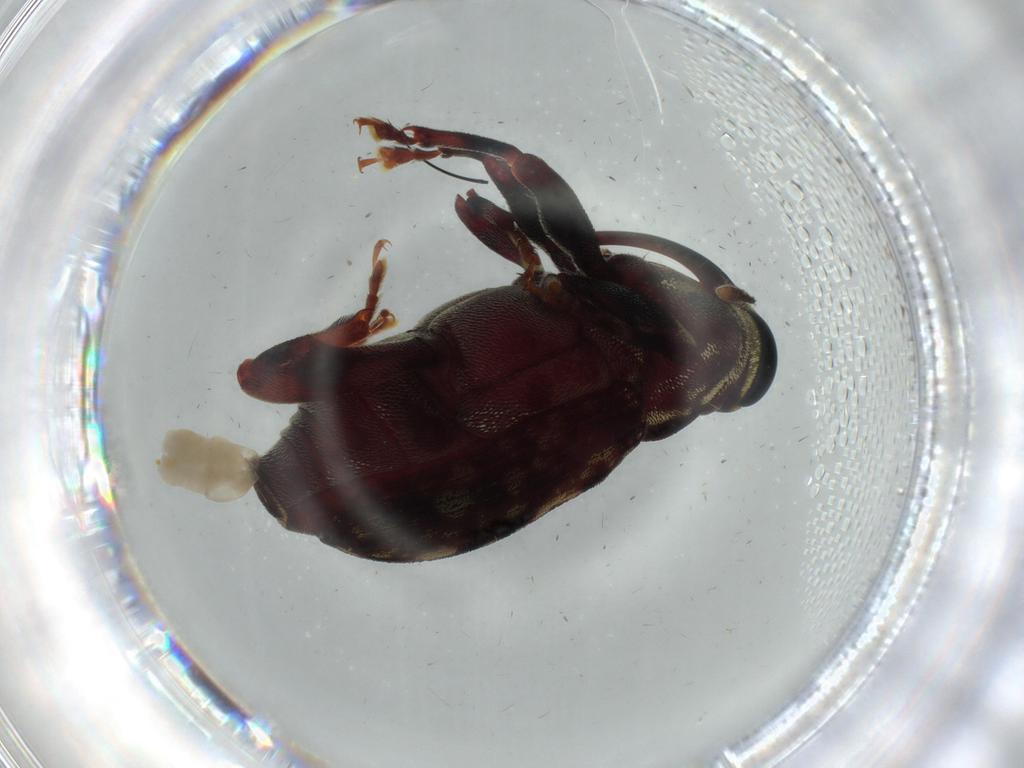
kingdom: Animalia
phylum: Arthropoda
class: Insecta
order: Coleoptera
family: Curculionidae
